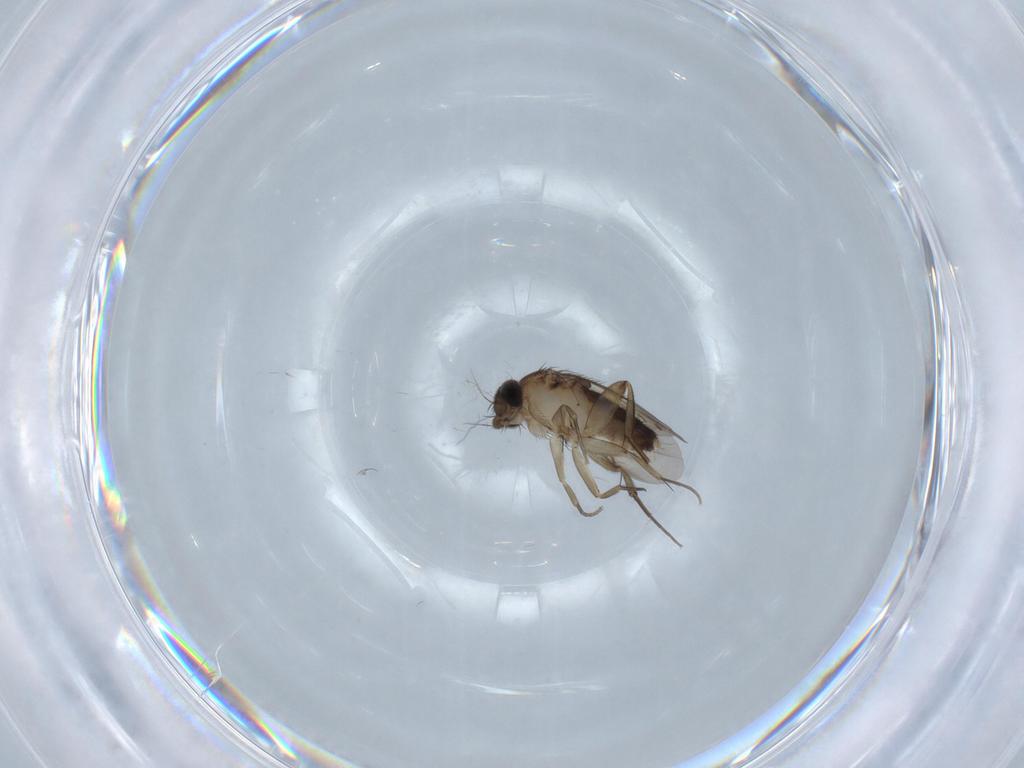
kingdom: Animalia
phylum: Arthropoda
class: Insecta
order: Diptera
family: Phoridae
